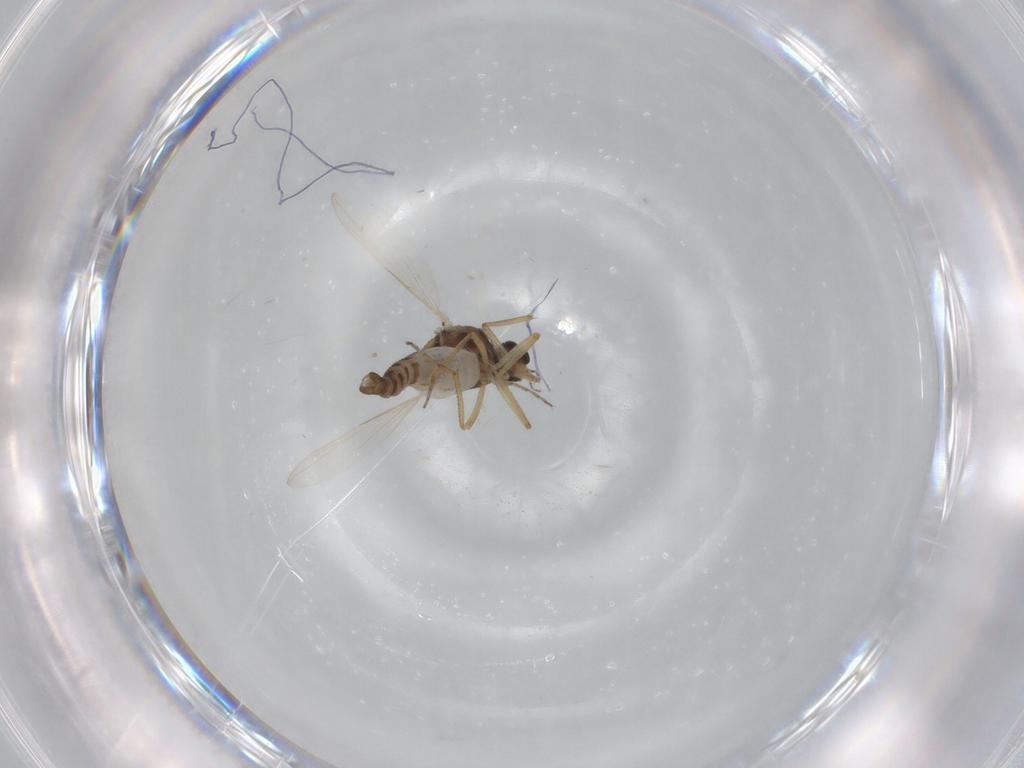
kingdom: Animalia
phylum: Arthropoda
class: Insecta
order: Diptera
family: Ceratopogonidae
